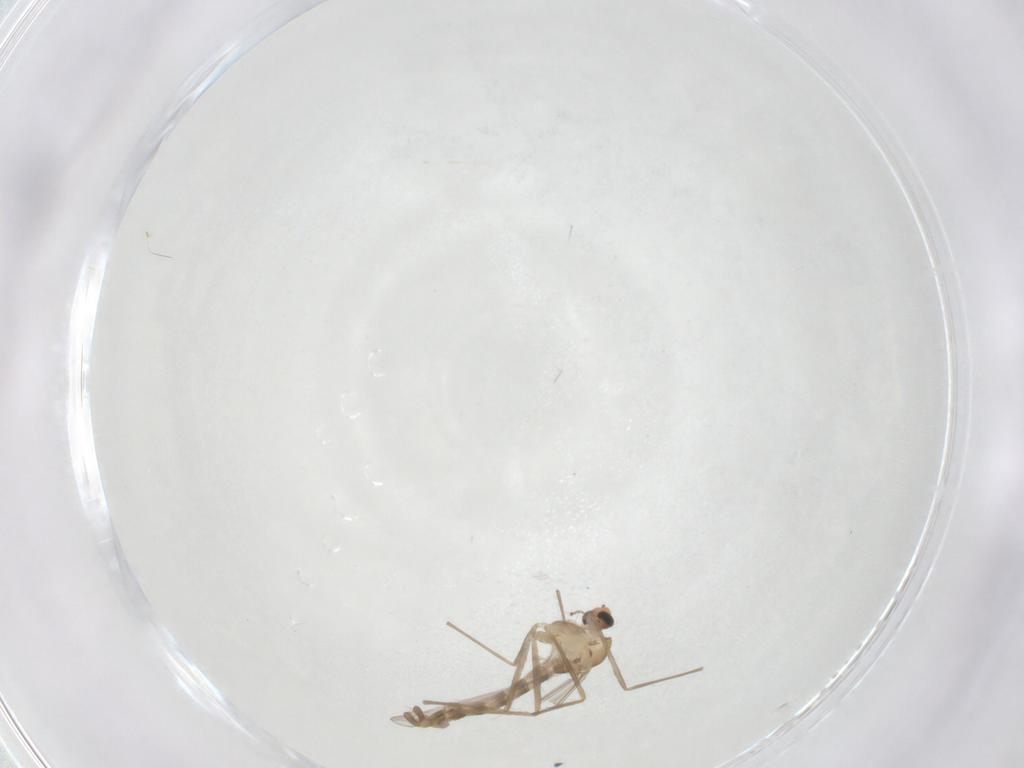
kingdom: Animalia
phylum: Arthropoda
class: Insecta
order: Diptera
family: Chironomidae
